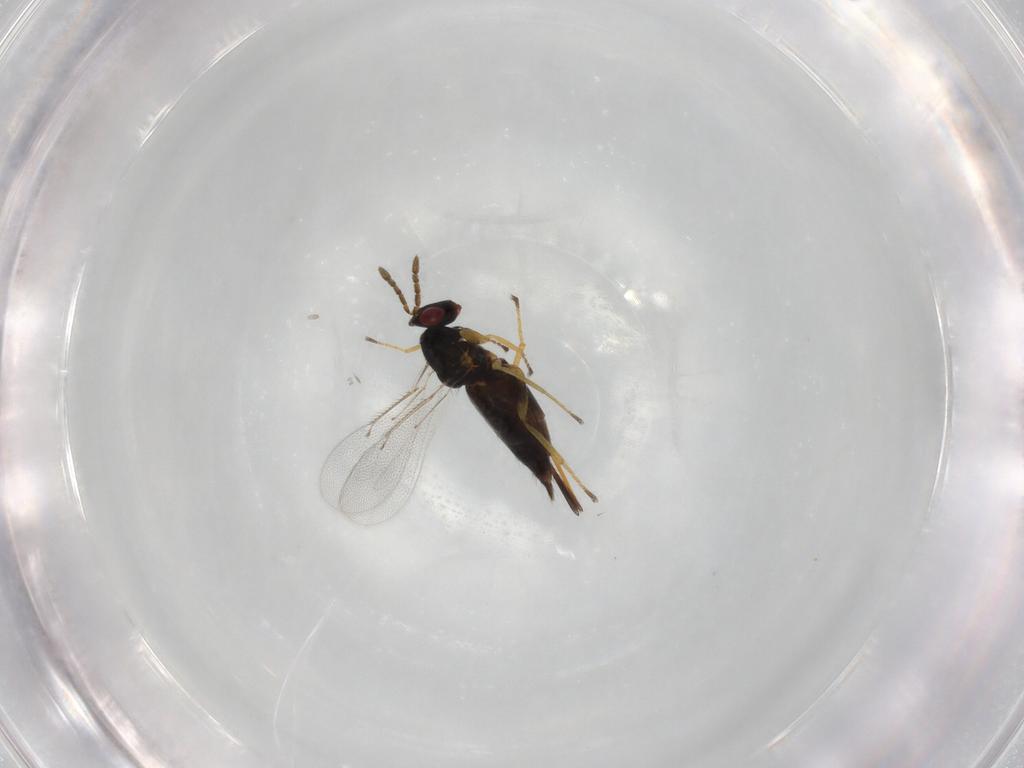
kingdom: Animalia
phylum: Arthropoda
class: Insecta
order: Hymenoptera
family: Eulophidae
